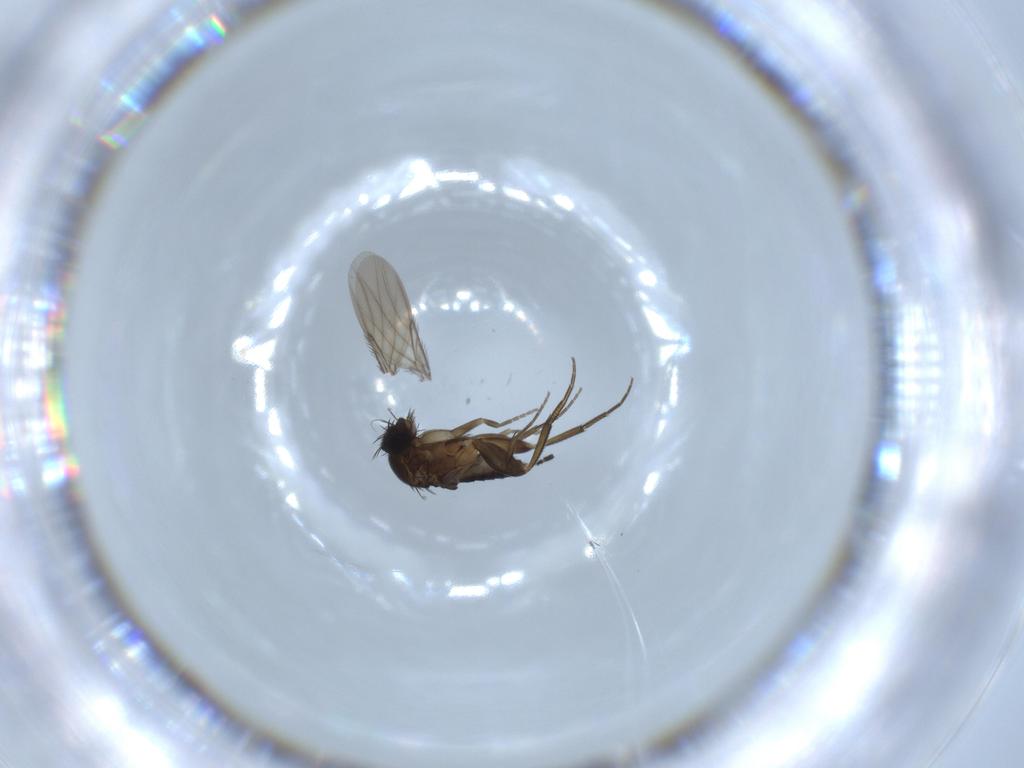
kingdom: Animalia
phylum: Arthropoda
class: Insecta
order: Diptera
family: Phoridae
